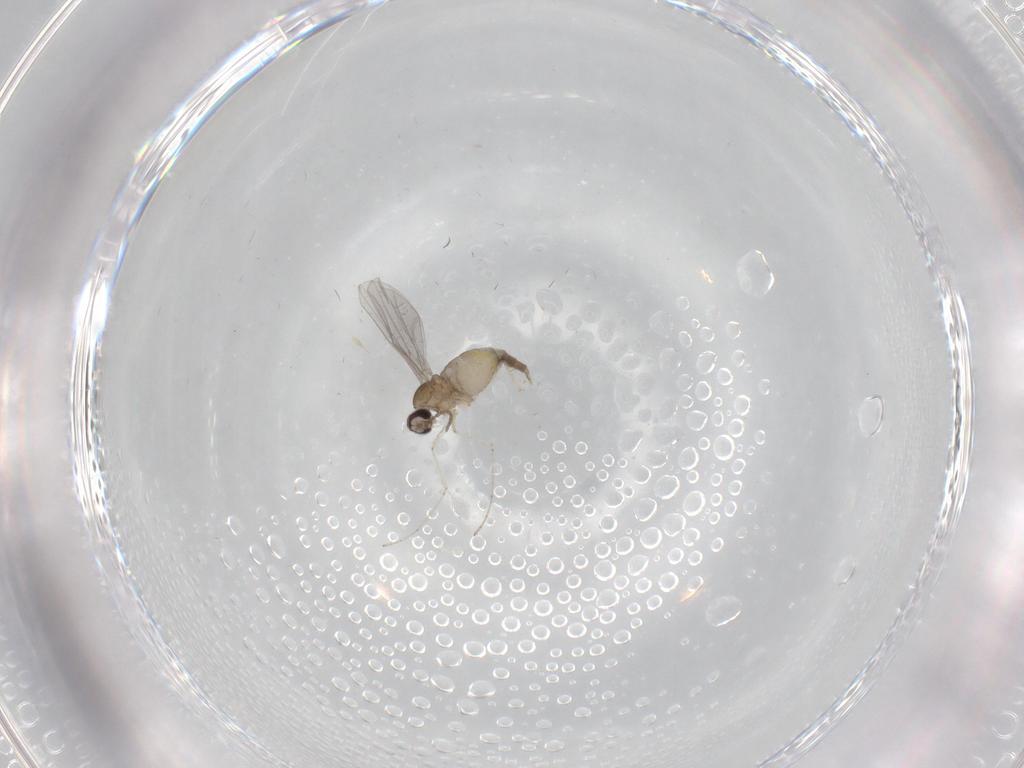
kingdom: Animalia
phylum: Arthropoda
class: Insecta
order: Diptera
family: Cecidomyiidae
